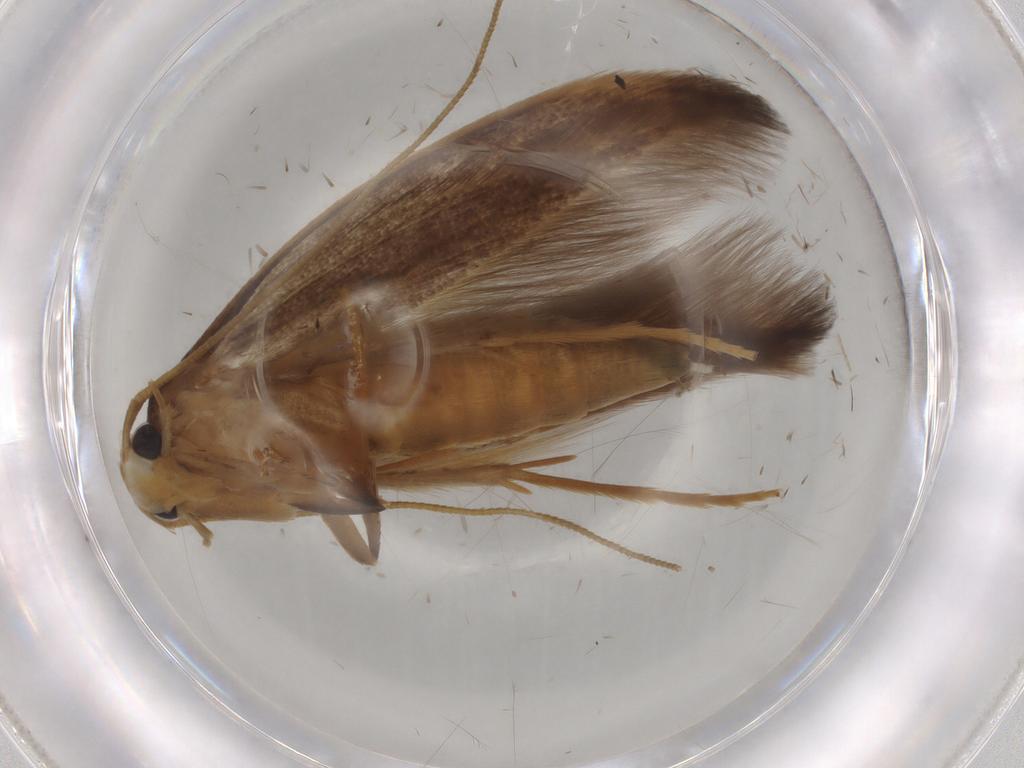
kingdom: Animalia
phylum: Arthropoda
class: Insecta
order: Lepidoptera
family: Tineidae
